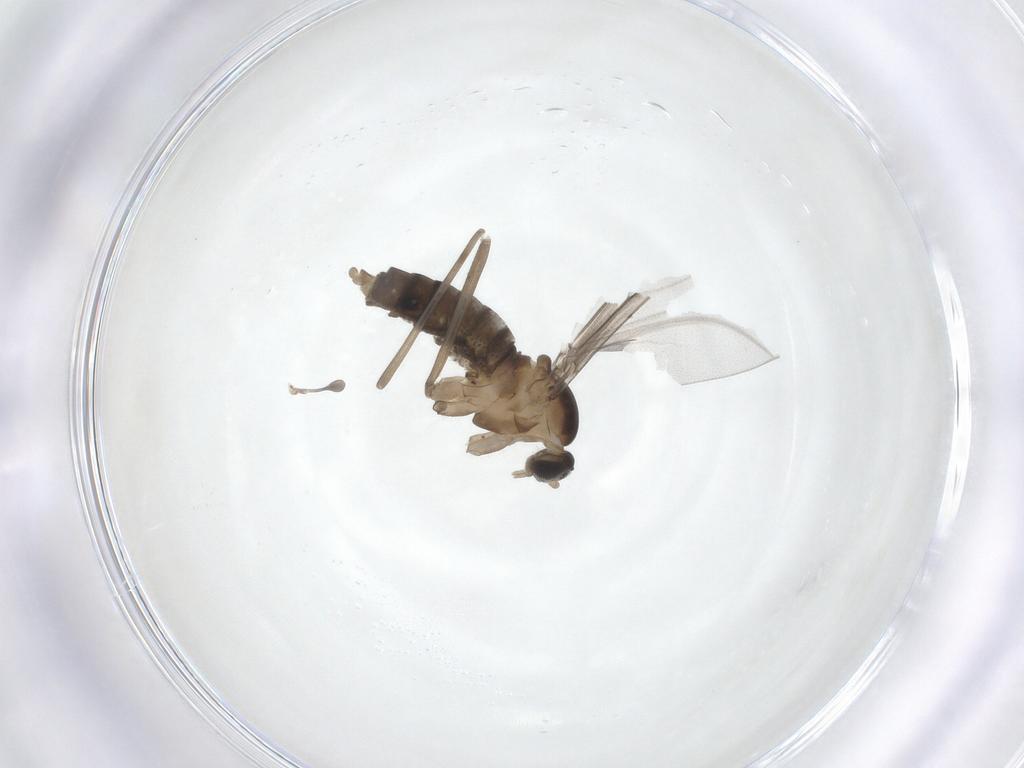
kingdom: Animalia
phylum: Arthropoda
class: Insecta
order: Diptera
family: Cecidomyiidae
